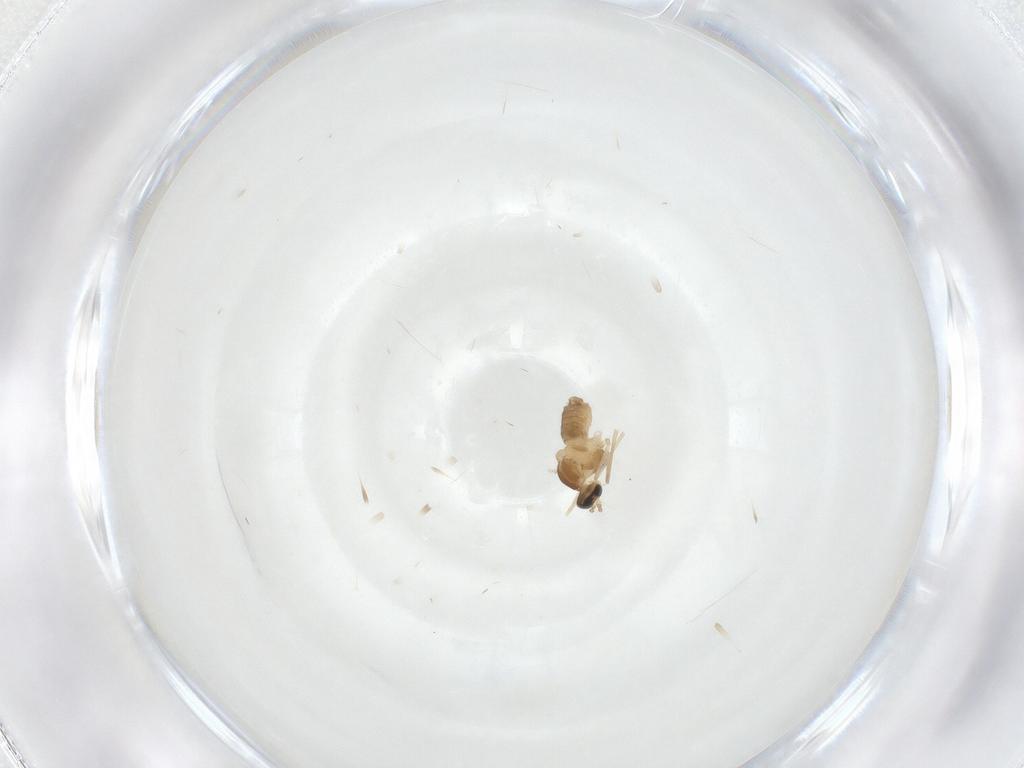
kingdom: Animalia
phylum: Arthropoda
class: Insecta
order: Diptera
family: Cecidomyiidae
